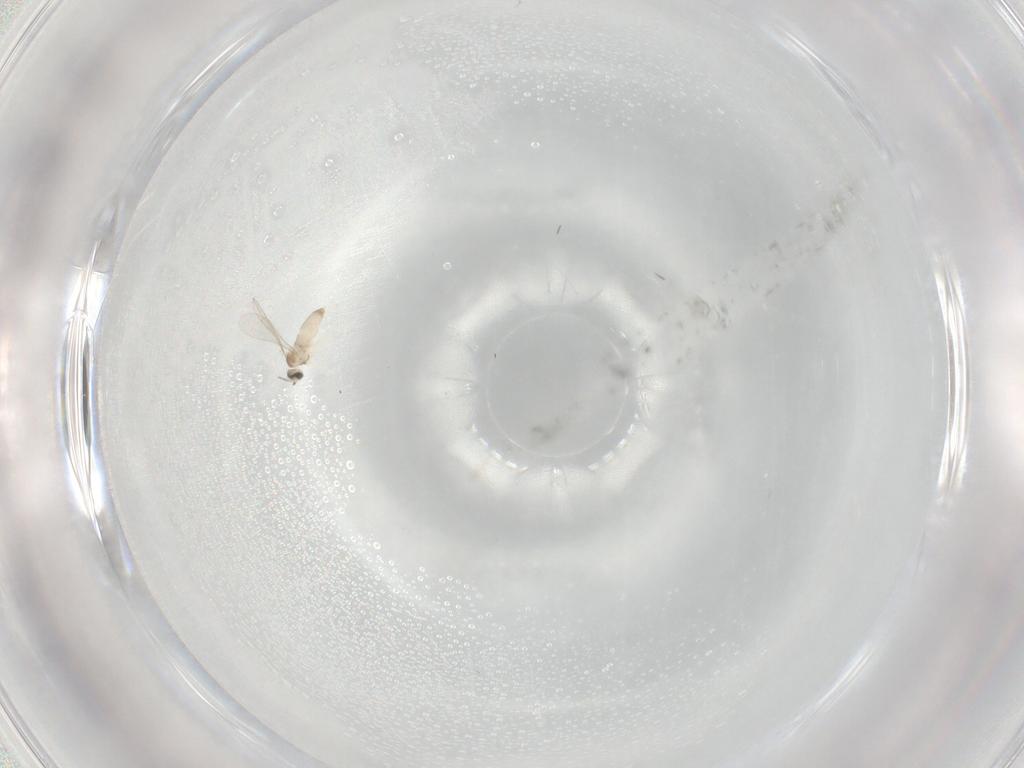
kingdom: Animalia
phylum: Arthropoda
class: Insecta
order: Diptera
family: Cecidomyiidae
